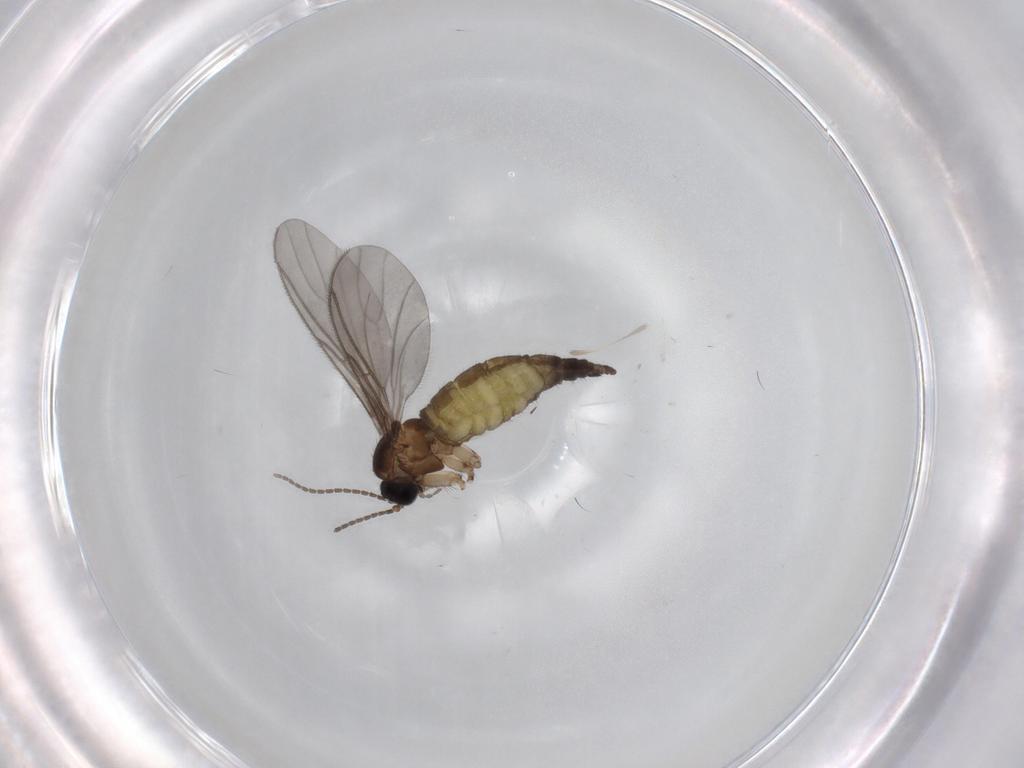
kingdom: Animalia
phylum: Arthropoda
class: Insecta
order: Diptera
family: Sciaridae
